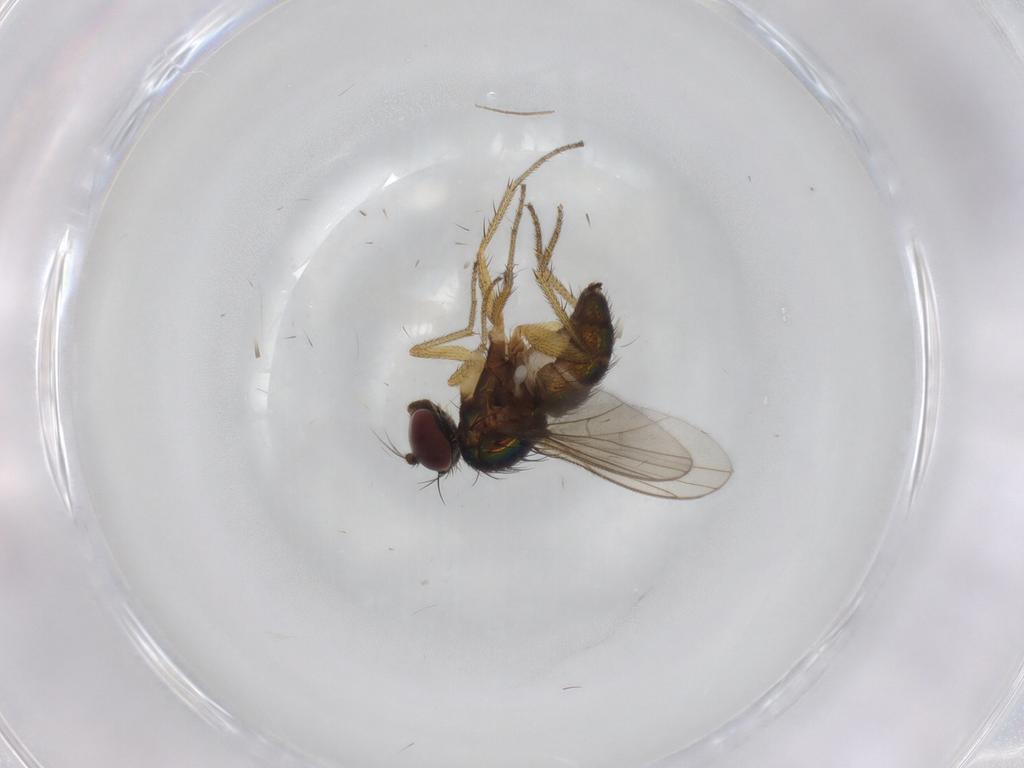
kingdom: Animalia
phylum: Arthropoda
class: Insecta
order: Diptera
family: Dolichopodidae
